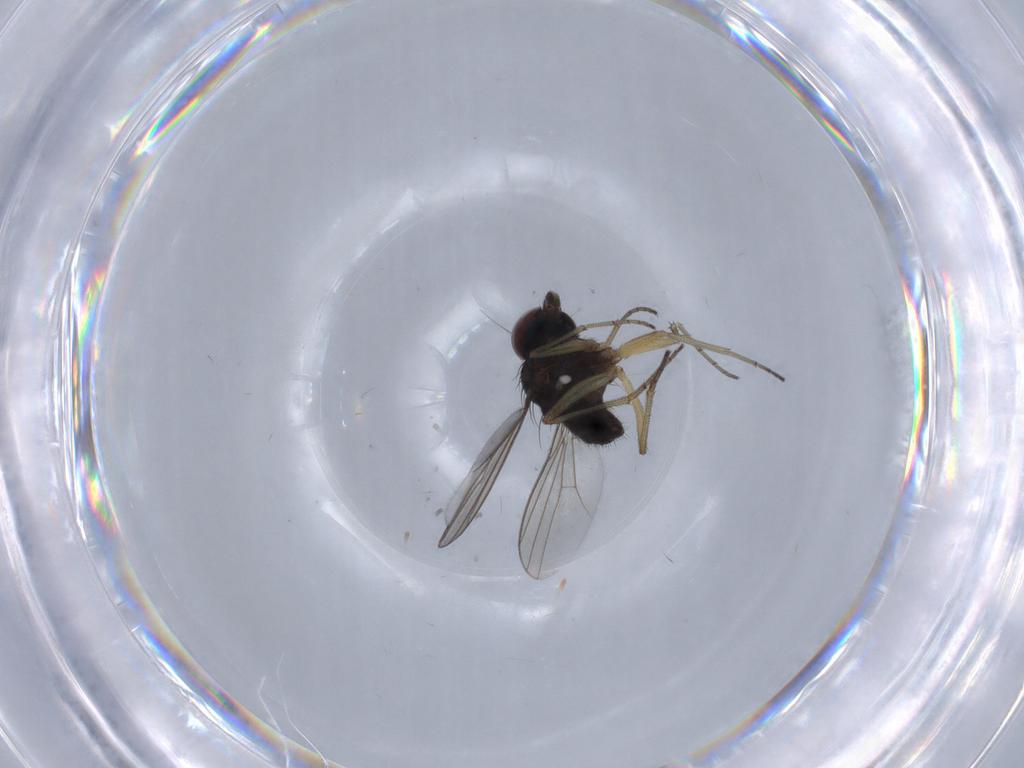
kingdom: Animalia
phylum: Arthropoda
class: Insecta
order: Diptera
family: Dolichopodidae
